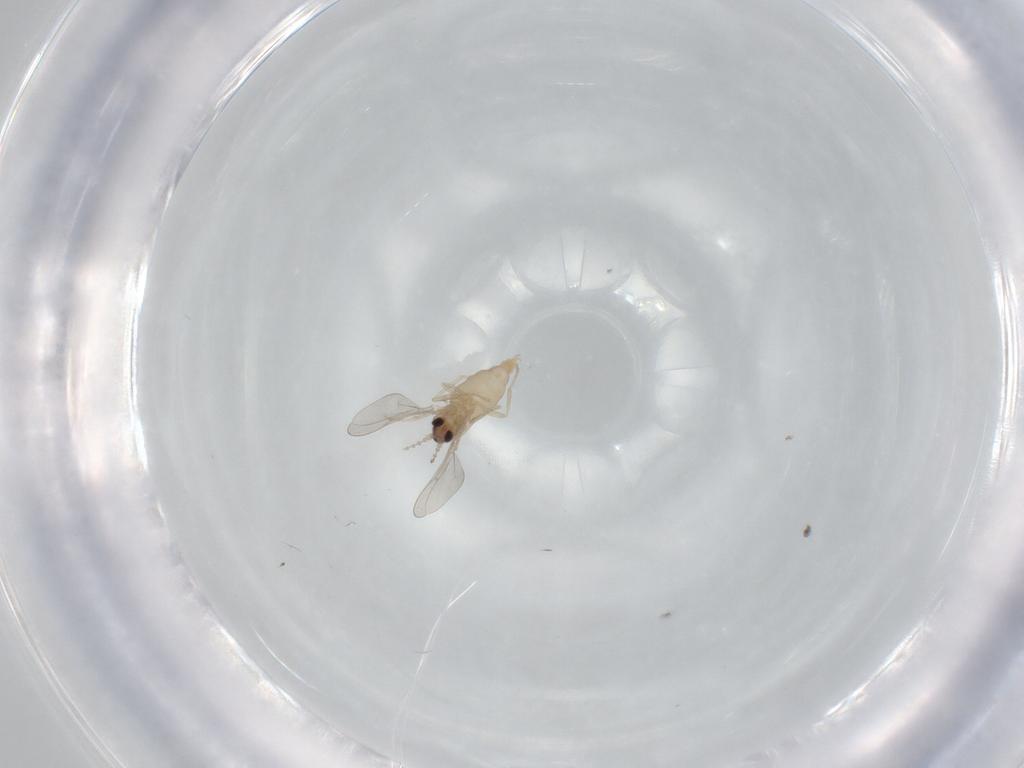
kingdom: Animalia
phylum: Arthropoda
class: Insecta
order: Diptera
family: Cecidomyiidae
